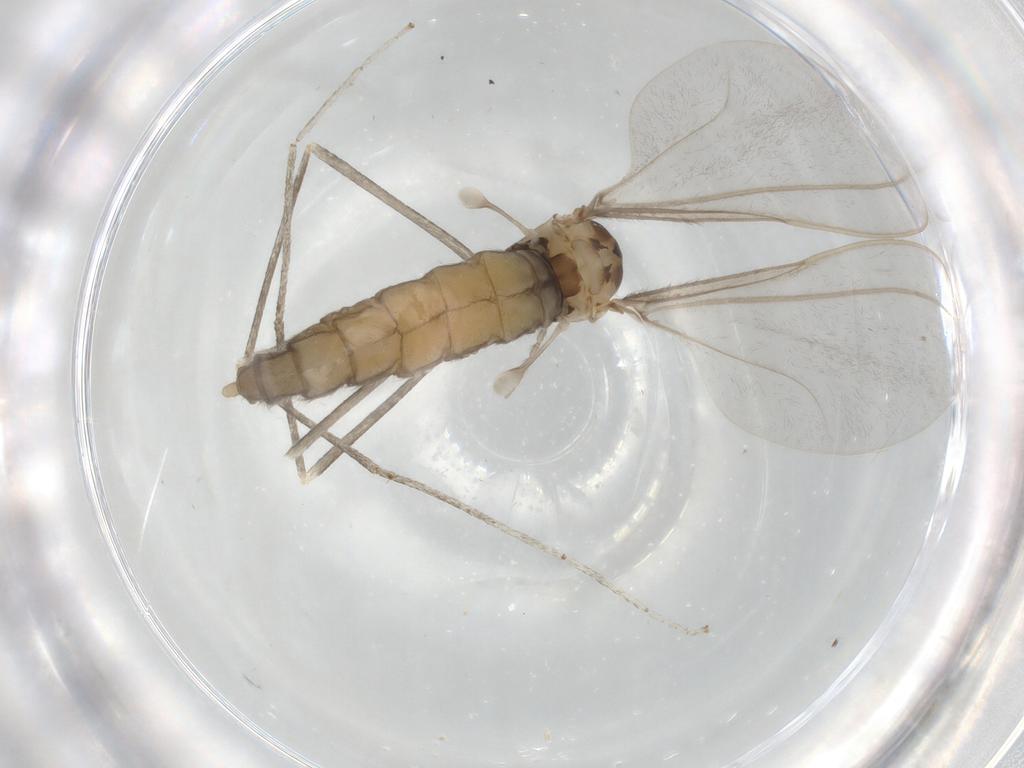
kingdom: Animalia
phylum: Arthropoda
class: Insecta
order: Diptera
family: Cecidomyiidae
